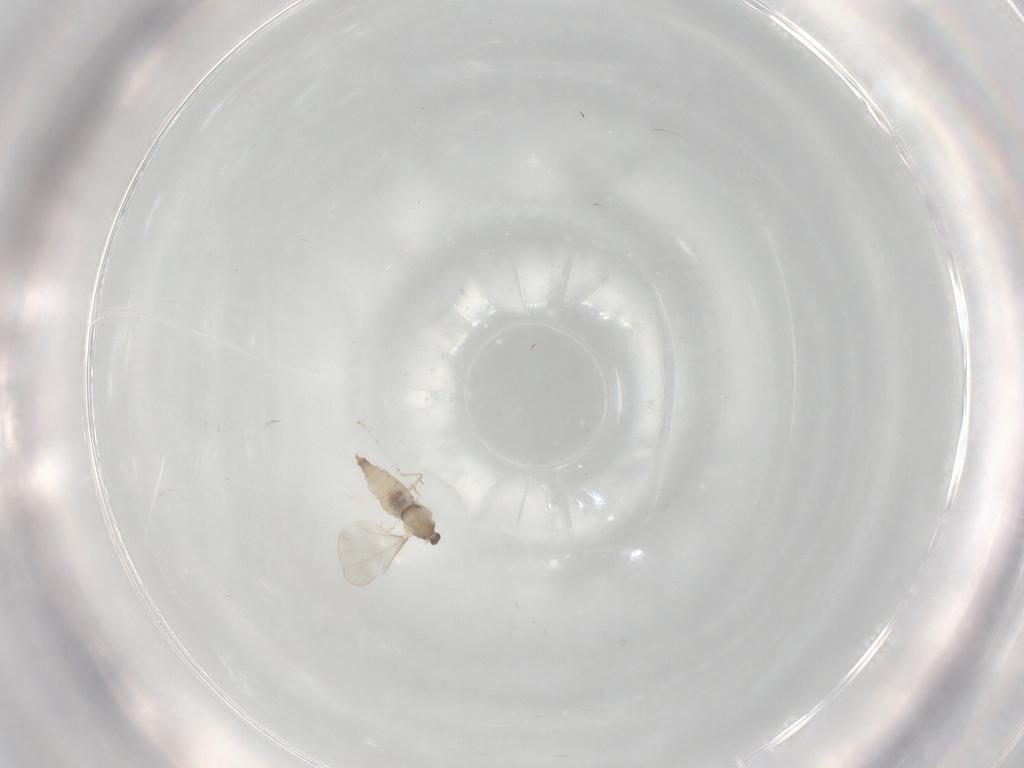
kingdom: Animalia
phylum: Arthropoda
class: Insecta
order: Diptera
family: Cecidomyiidae
